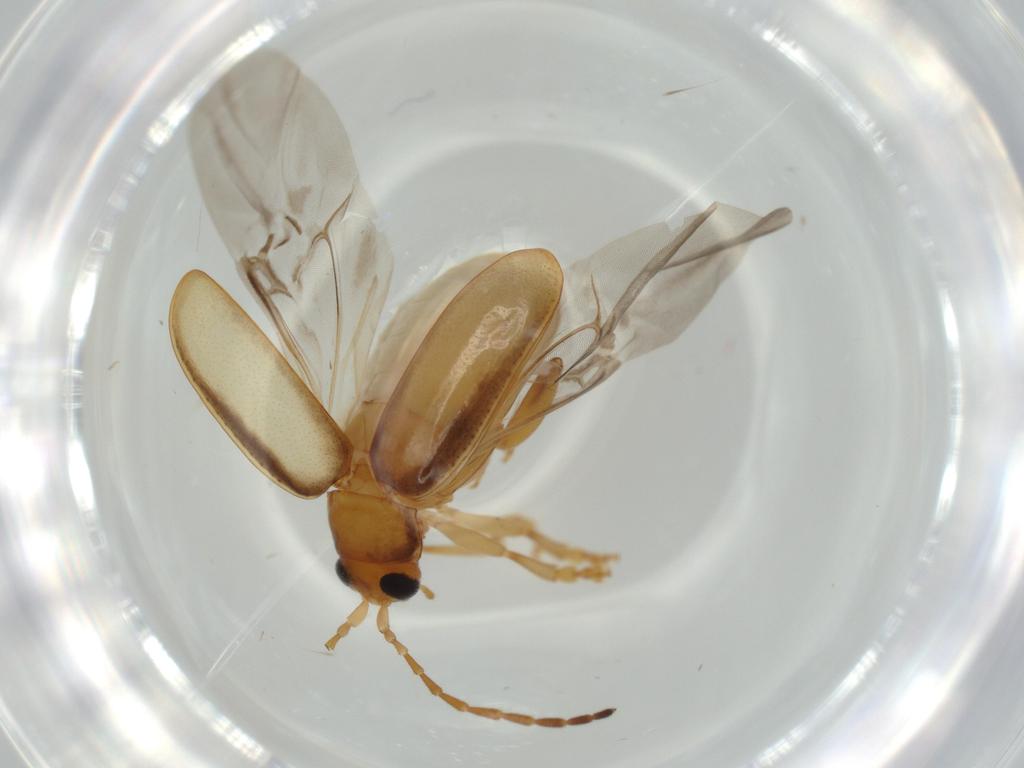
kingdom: Animalia
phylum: Arthropoda
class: Insecta
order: Coleoptera
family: Chrysomelidae
